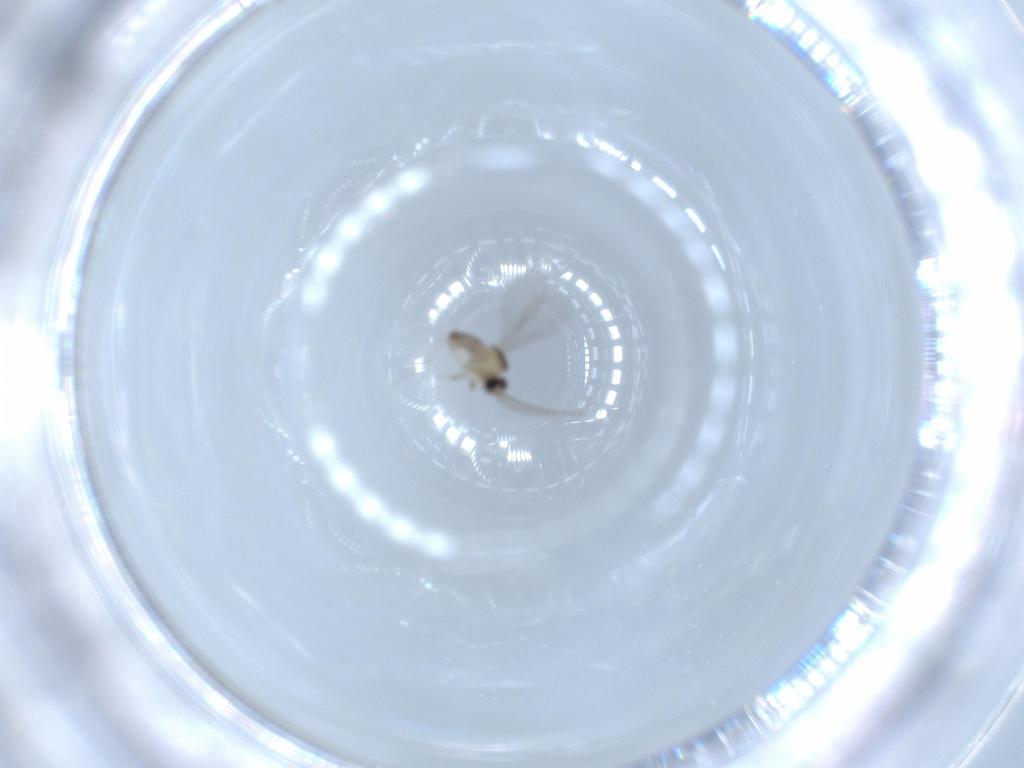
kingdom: Animalia
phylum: Arthropoda
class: Insecta
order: Diptera
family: Sciaridae
